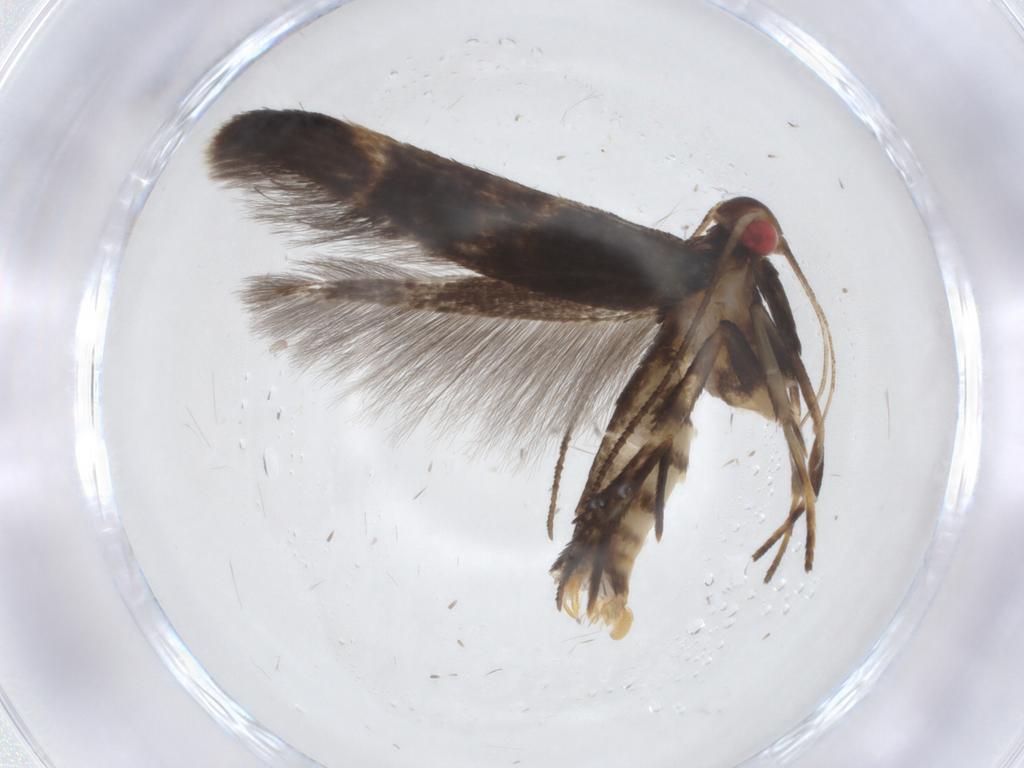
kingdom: Animalia
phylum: Arthropoda
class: Insecta
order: Lepidoptera
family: Gelechiidae
